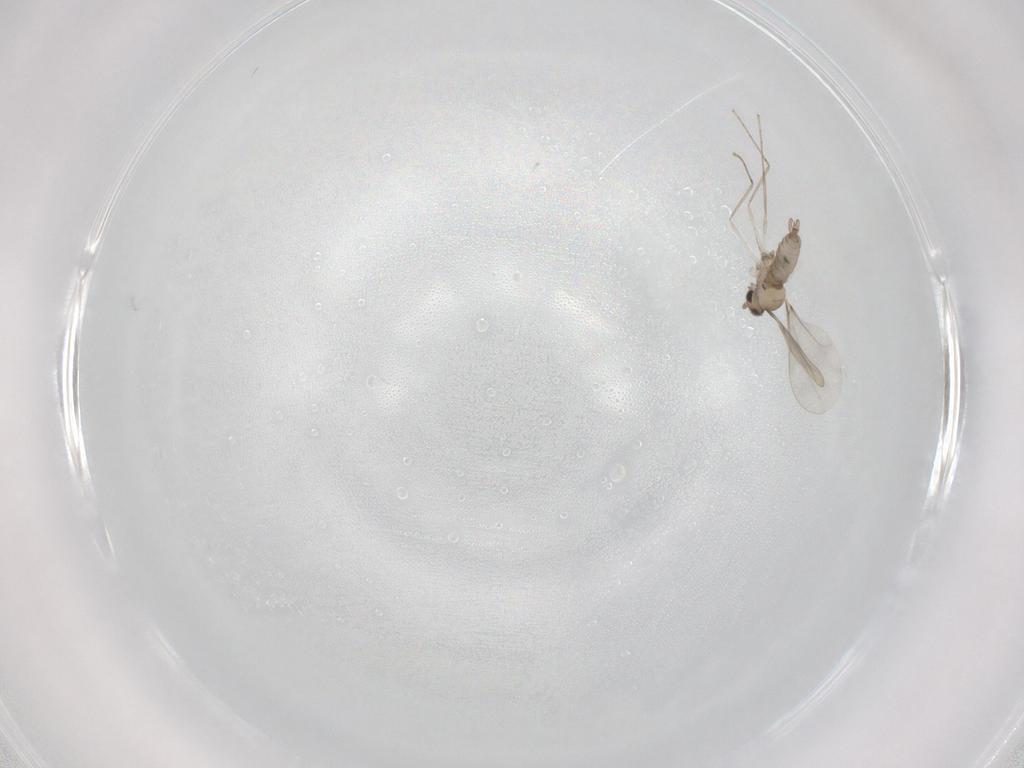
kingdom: Animalia
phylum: Arthropoda
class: Insecta
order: Diptera
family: Cecidomyiidae
